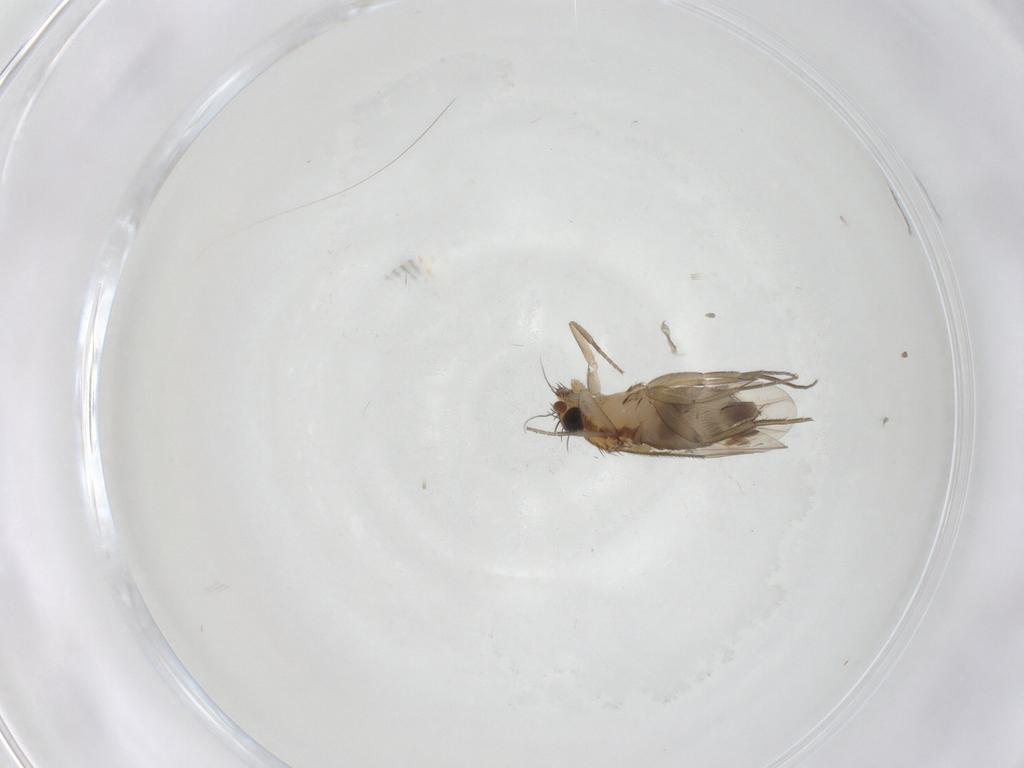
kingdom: Animalia
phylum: Arthropoda
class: Insecta
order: Diptera
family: Phoridae
